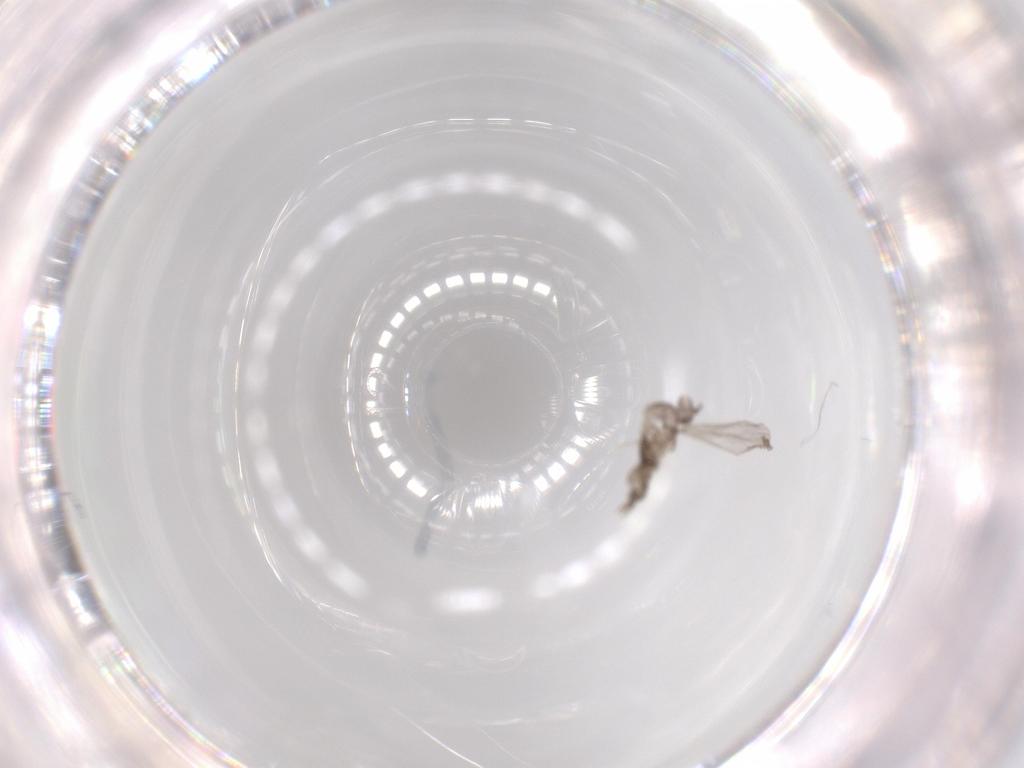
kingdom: Animalia
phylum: Arthropoda
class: Insecta
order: Diptera
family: Cecidomyiidae
